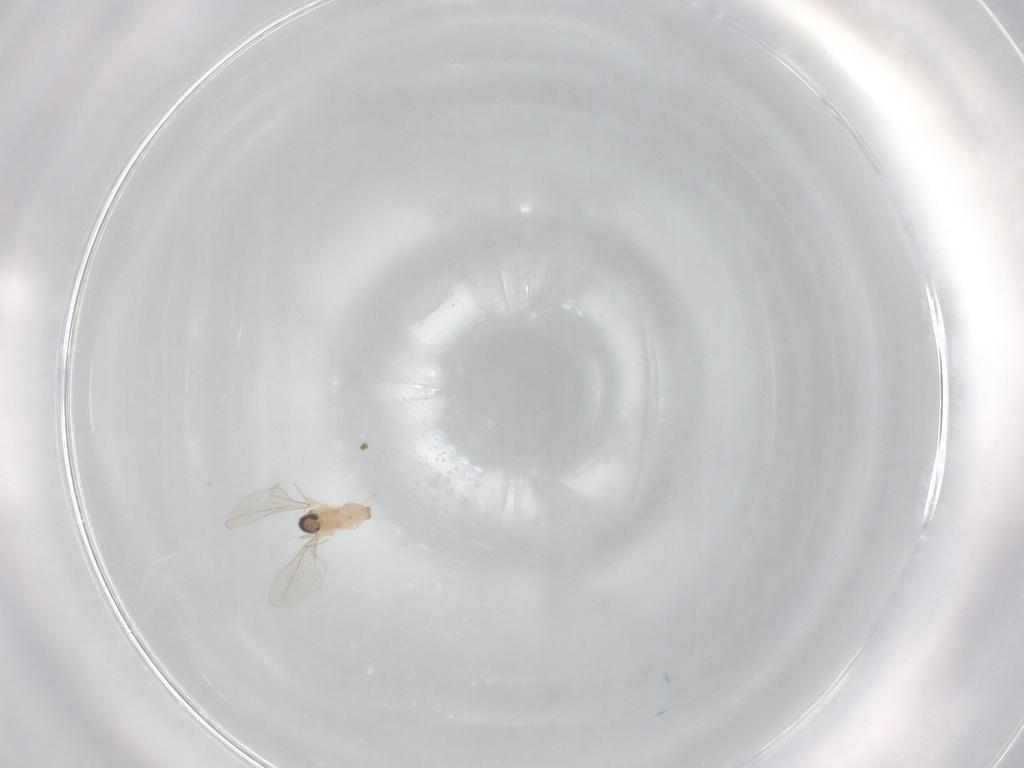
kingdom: Animalia
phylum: Arthropoda
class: Insecta
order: Diptera
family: Cecidomyiidae
